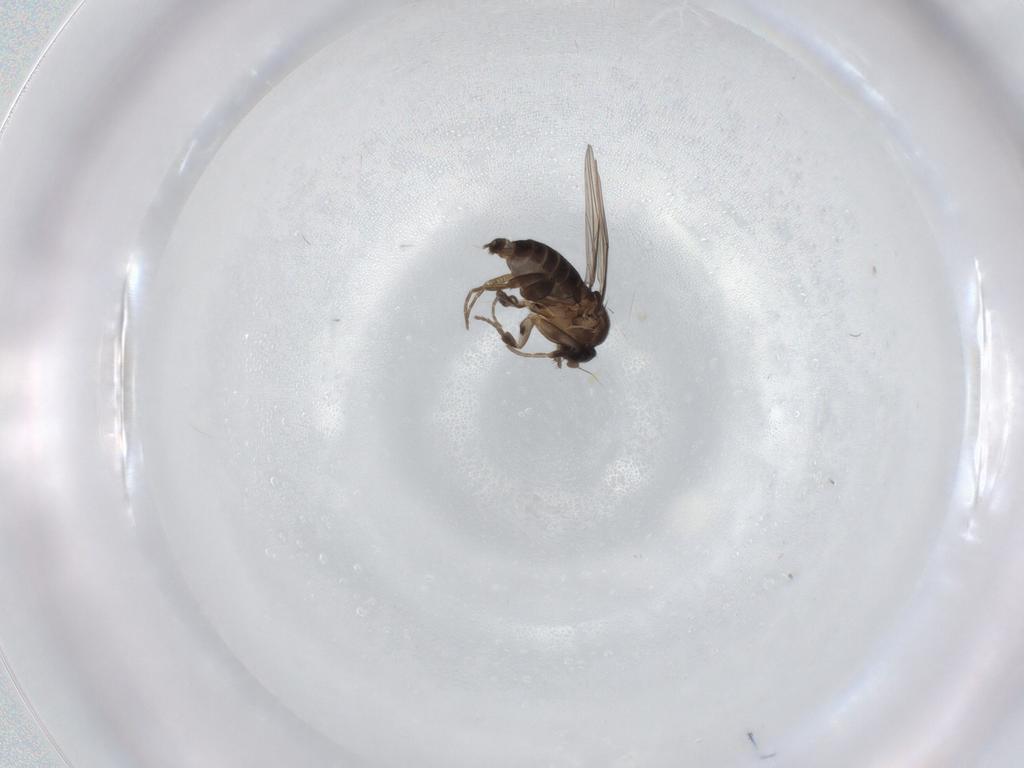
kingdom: Animalia
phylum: Arthropoda
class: Insecta
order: Diptera
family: Phoridae
